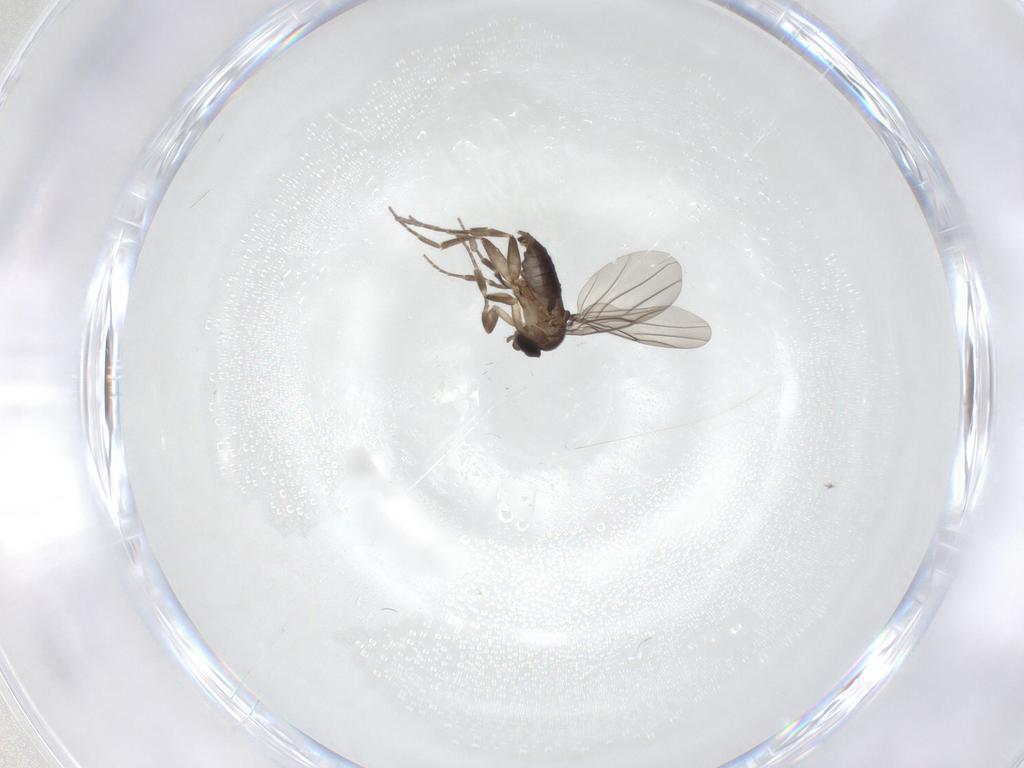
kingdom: Animalia
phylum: Arthropoda
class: Insecta
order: Diptera
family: Phoridae
